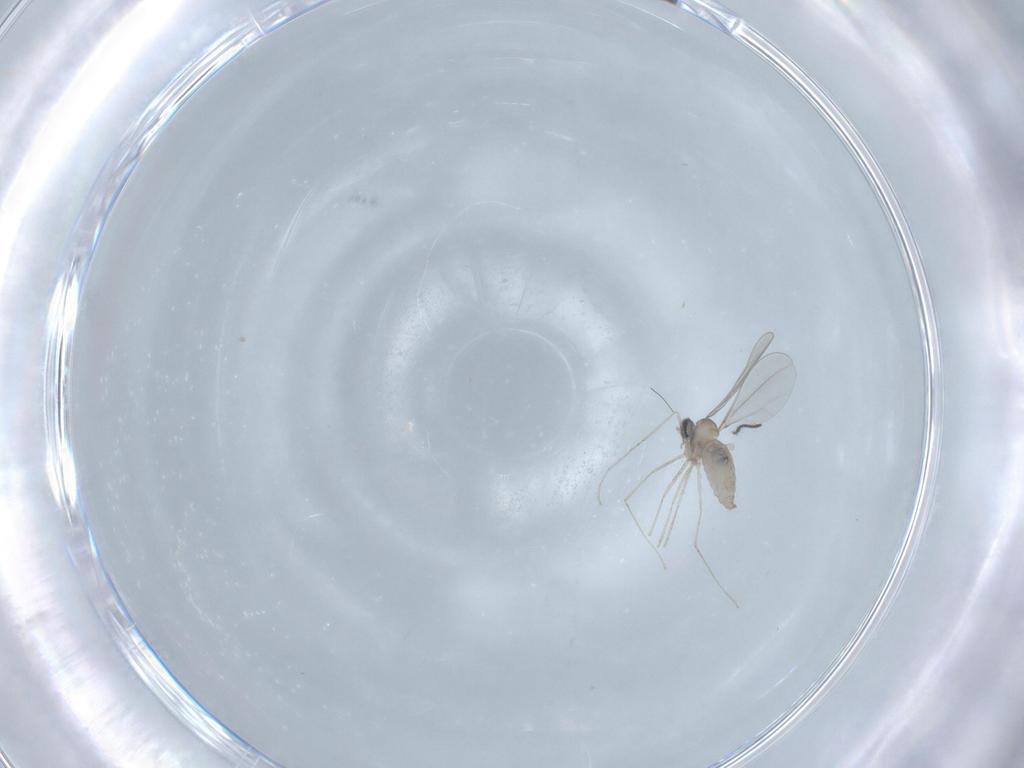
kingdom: Animalia
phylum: Arthropoda
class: Insecta
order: Diptera
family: Cecidomyiidae
